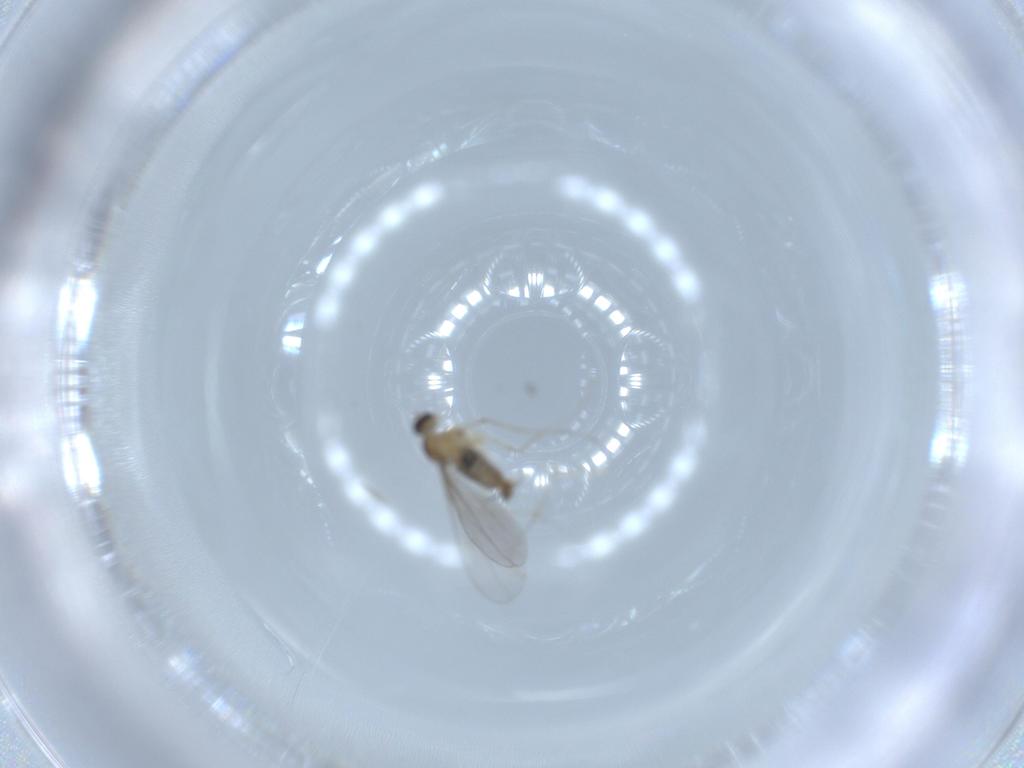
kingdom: Animalia
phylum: Arthropoda
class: Insecta
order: Diptera
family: Cecidomyiidae
